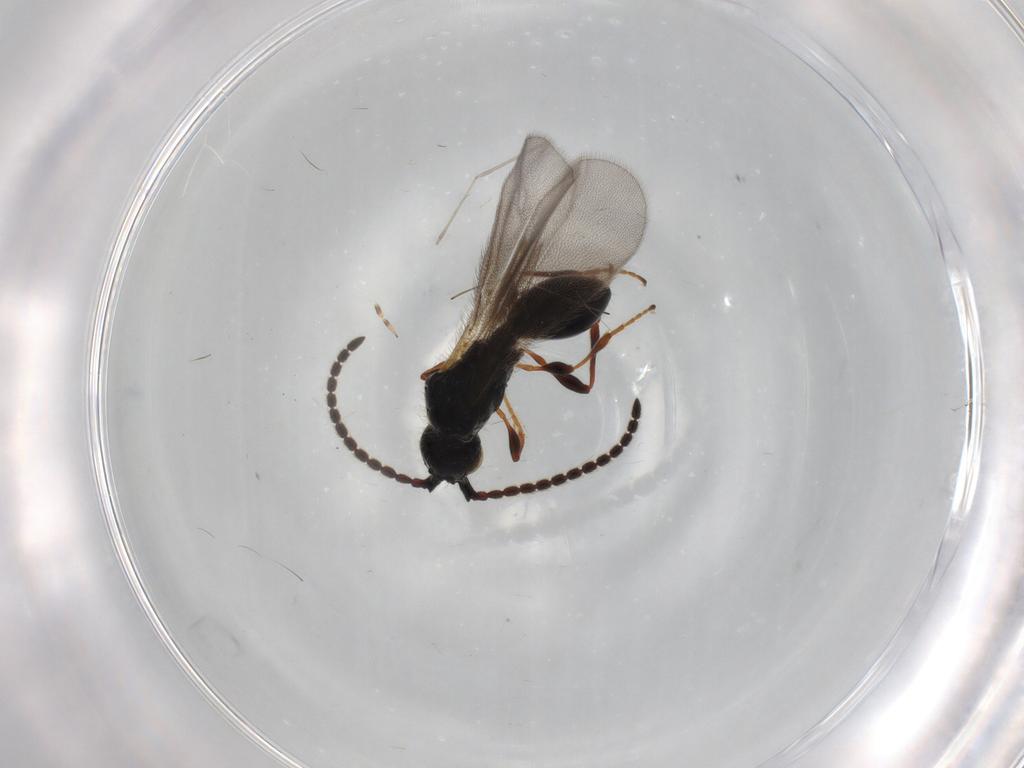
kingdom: Animalia
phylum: Arthropoda
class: Insecta
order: Hymenoptera
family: Diapriidae
